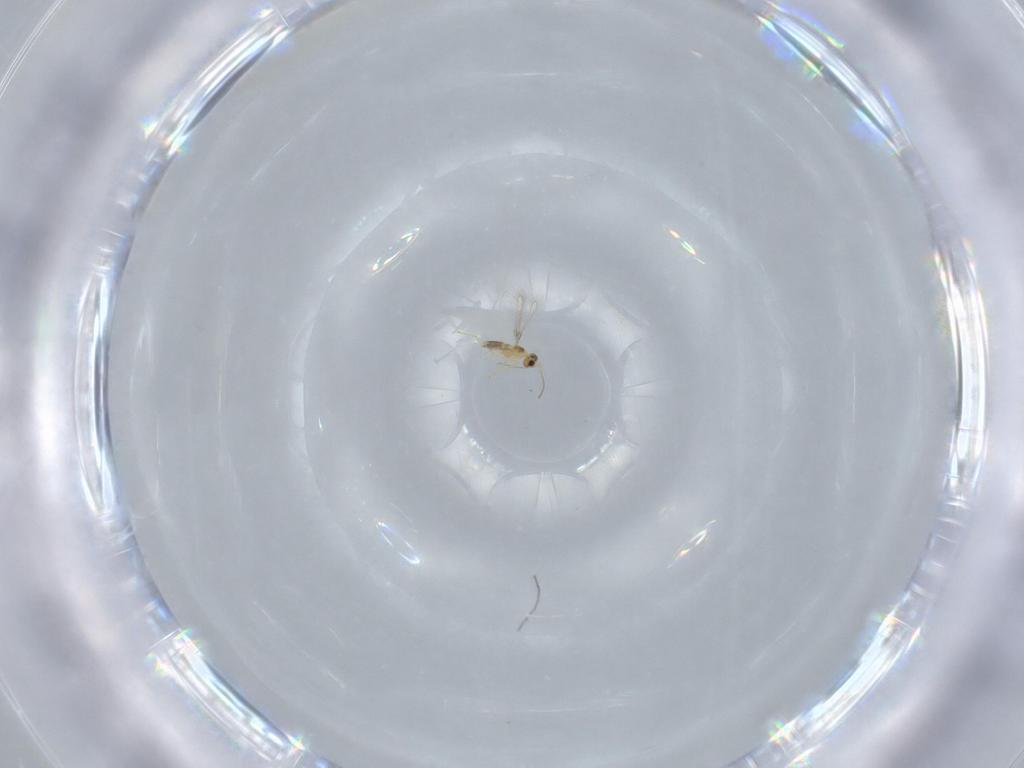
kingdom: Animalia
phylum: Arthropoda
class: Insecta
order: Hymenoptera
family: Mymaridae
